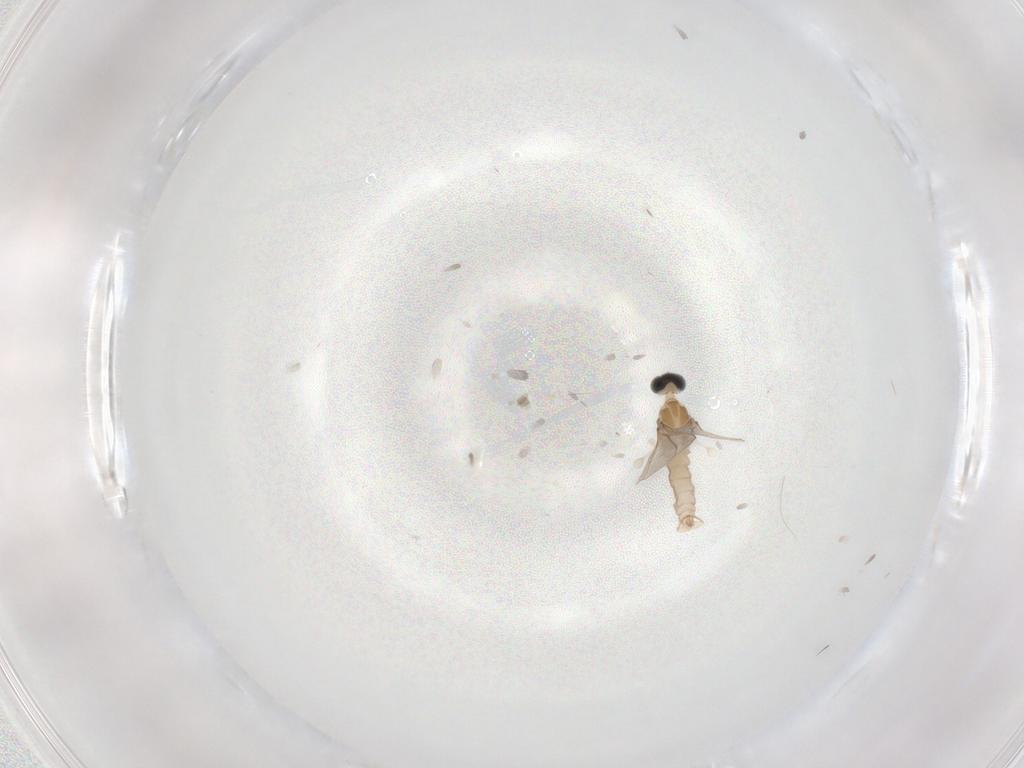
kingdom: Animalia
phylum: Arthropoda
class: Insecta
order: Diptera
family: Cecidomyiidae
